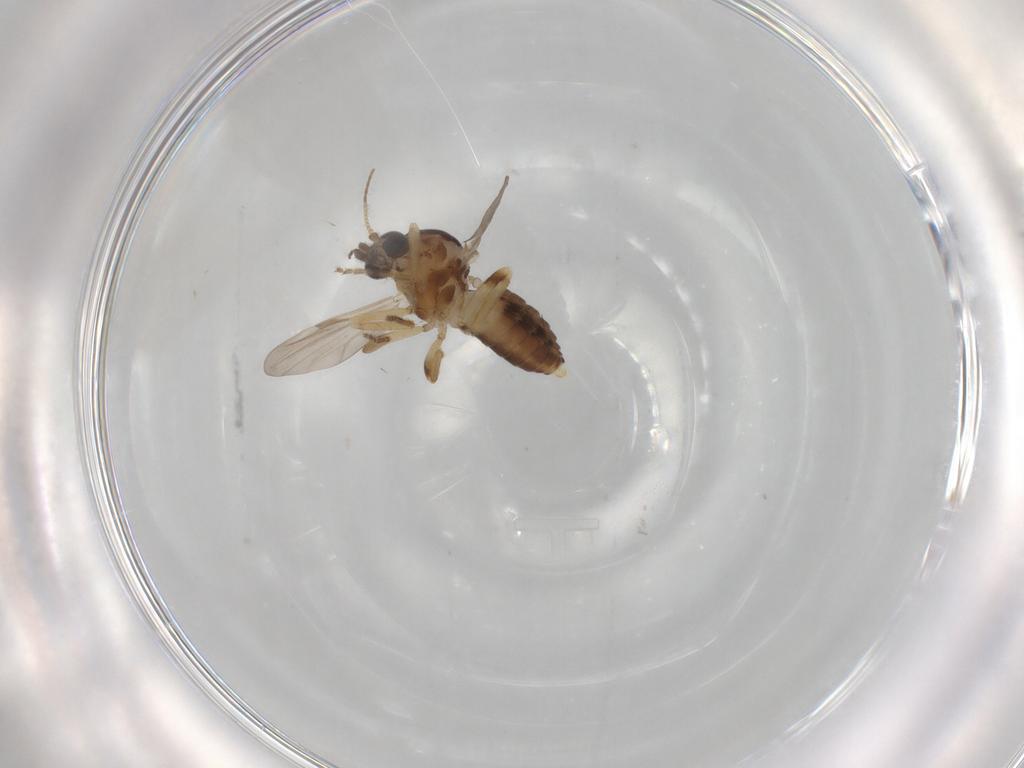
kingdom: Animalia
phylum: Arthropoda
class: Insecta
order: Diptera
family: Ceratopogonidae
